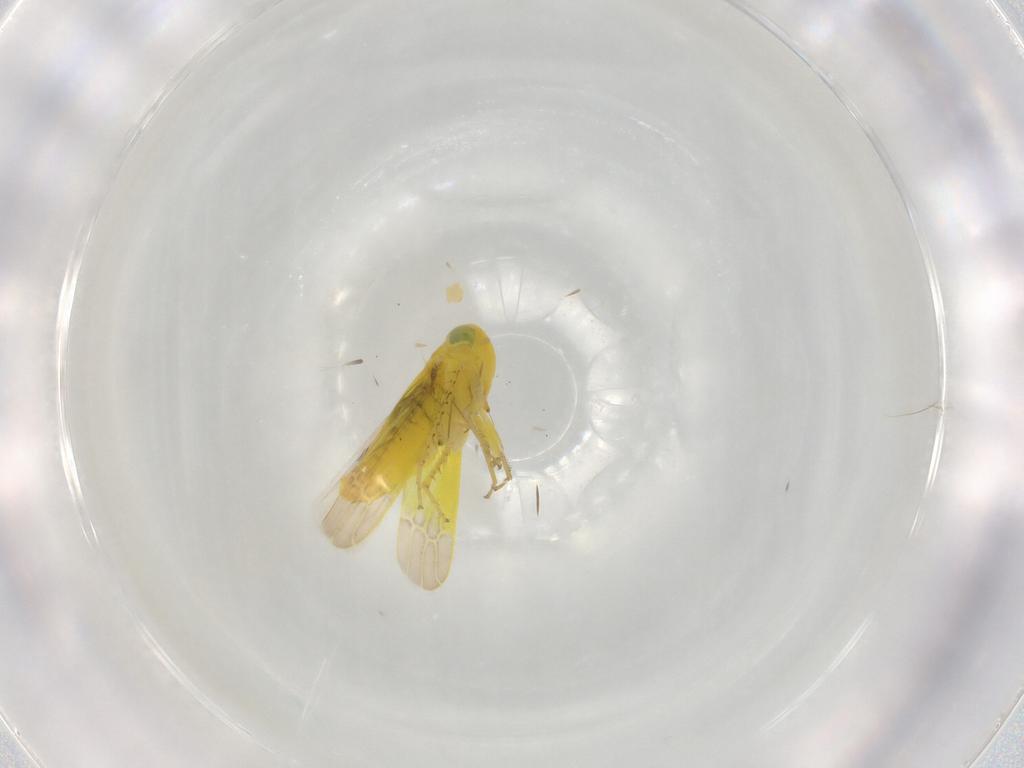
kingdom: Animalia
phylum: Arthropoda
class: Insecta
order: Hemiptera
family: Cicadellidae
